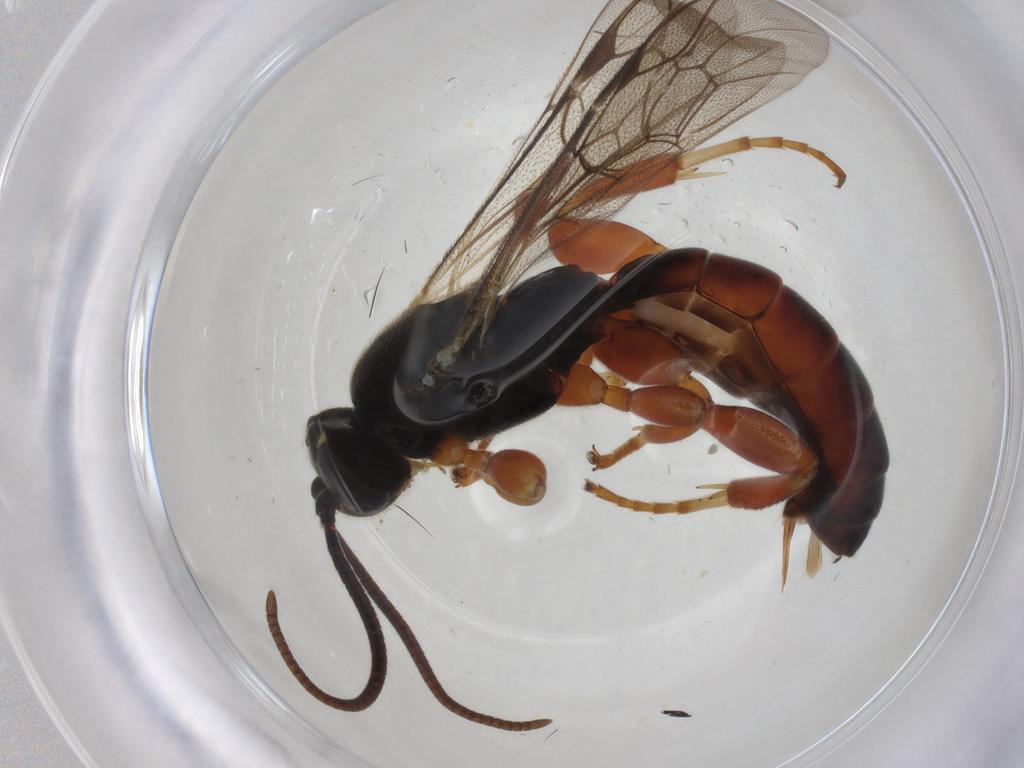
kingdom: Animalia
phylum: Arthropoda
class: Insecta
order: Hymenoptera
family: Ichneumonidae
